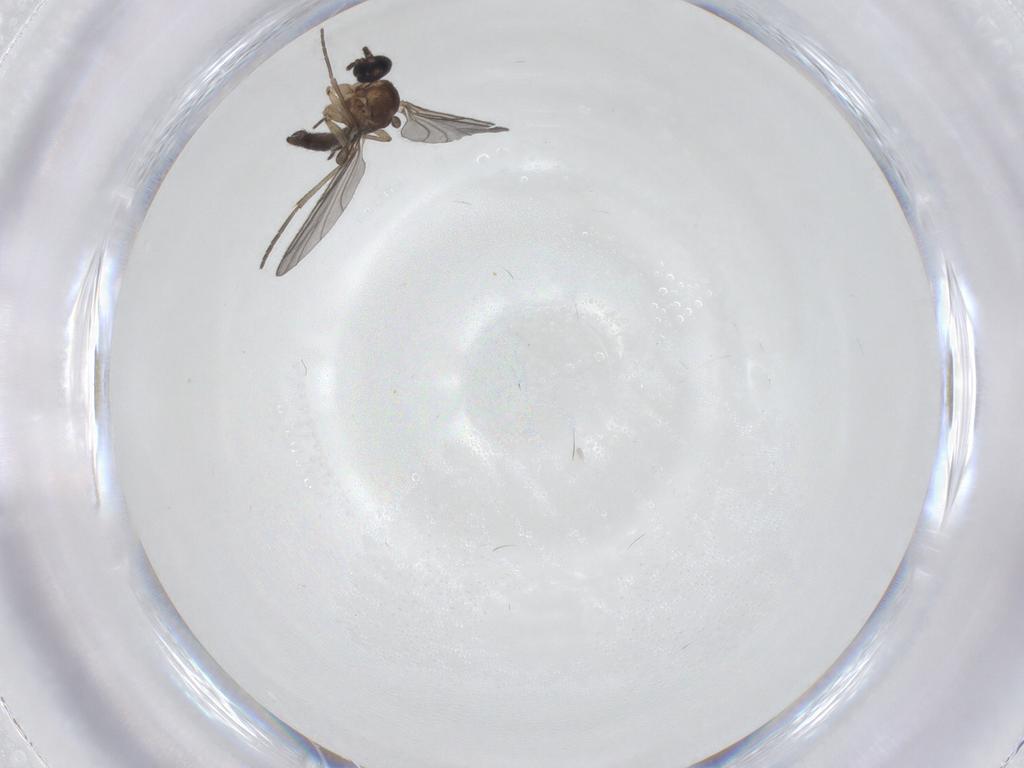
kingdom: Animalia
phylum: Arthropoda
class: Insecta
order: Diptera
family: Sciaridae
